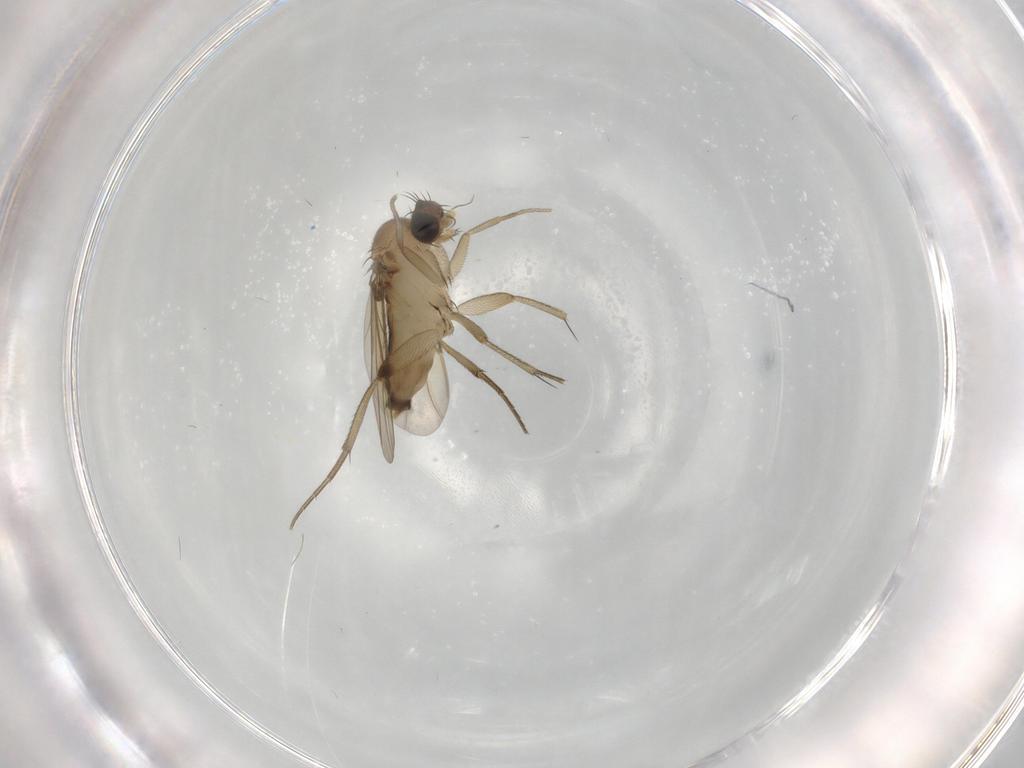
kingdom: Animalia
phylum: Arthropoda
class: Insecta
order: Diptera
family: Phoridae
